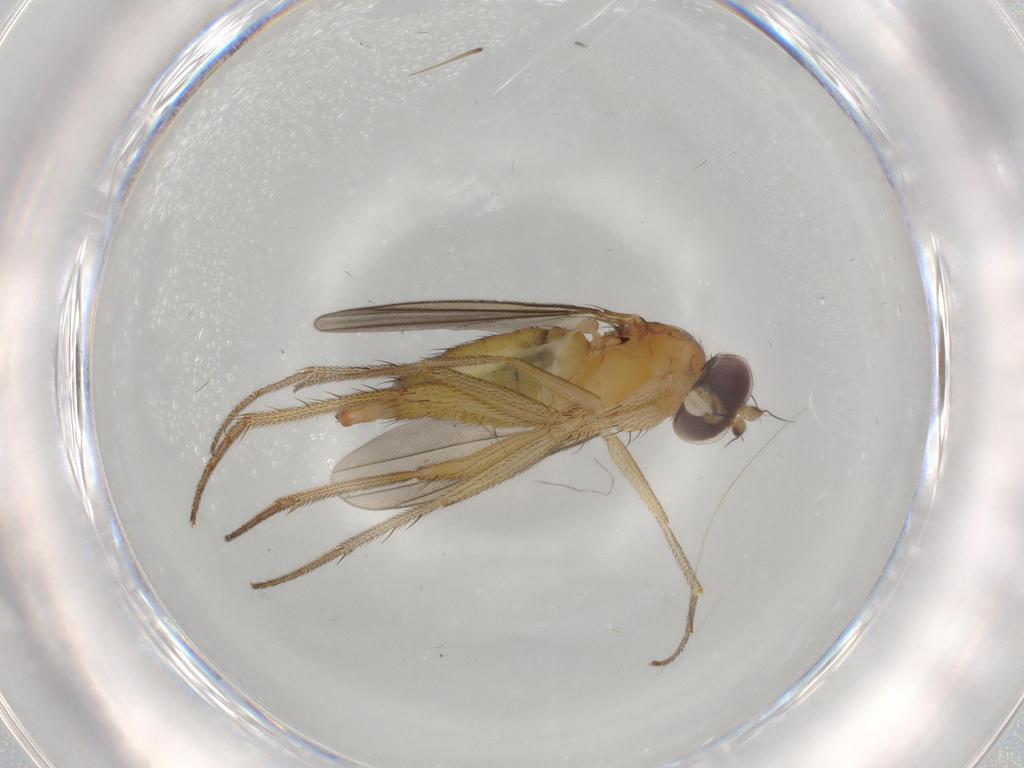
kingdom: Animalia
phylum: Arthropoda
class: Insecta
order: Diptera
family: Dolichopodidae
